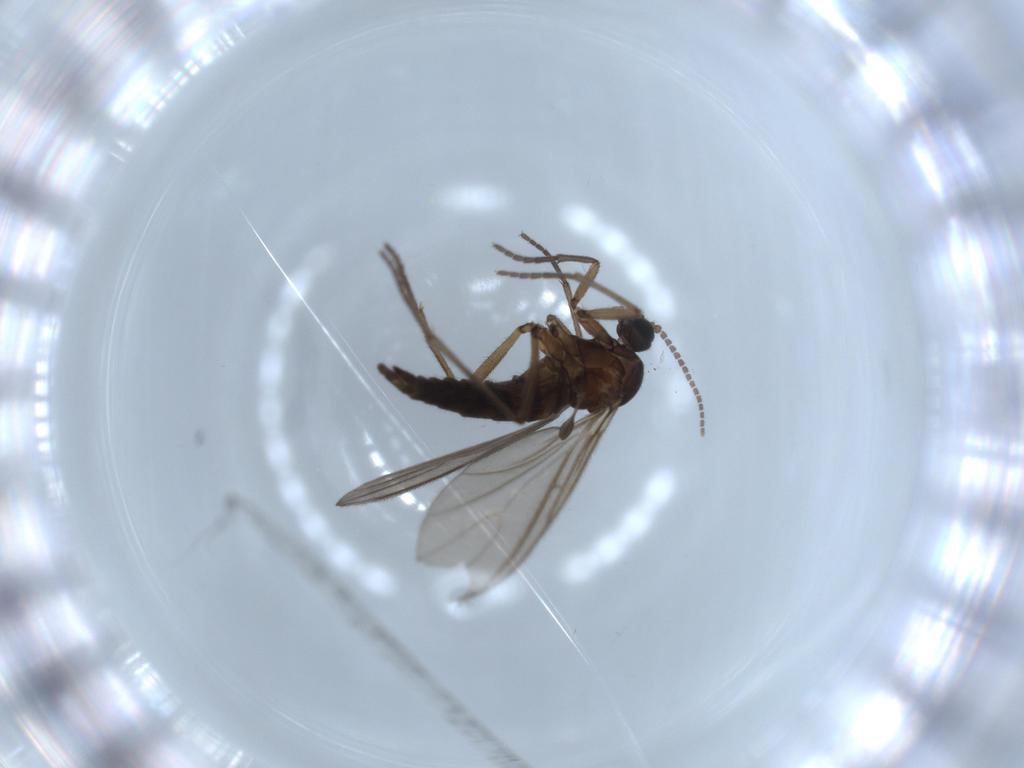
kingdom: Animalia
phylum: Arthropoda
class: Insecta
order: Diptera
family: Sciaridae
